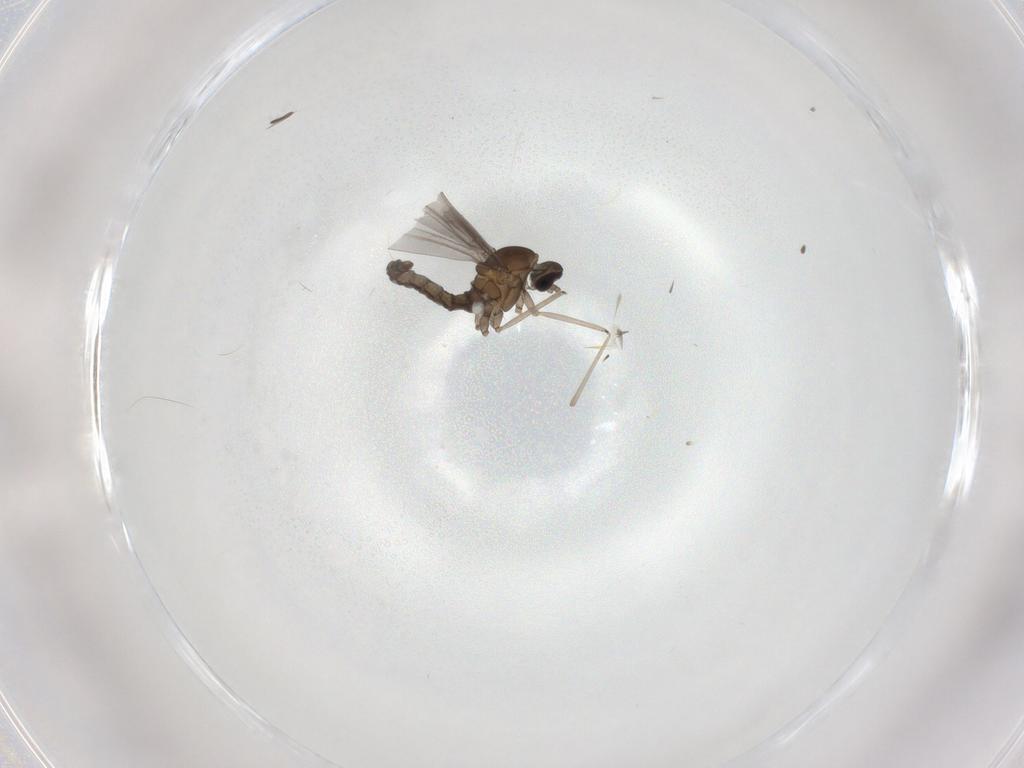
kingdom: Animalia
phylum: Arthropoda
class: Insecta
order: Diptera
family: Cecidomyiidae
